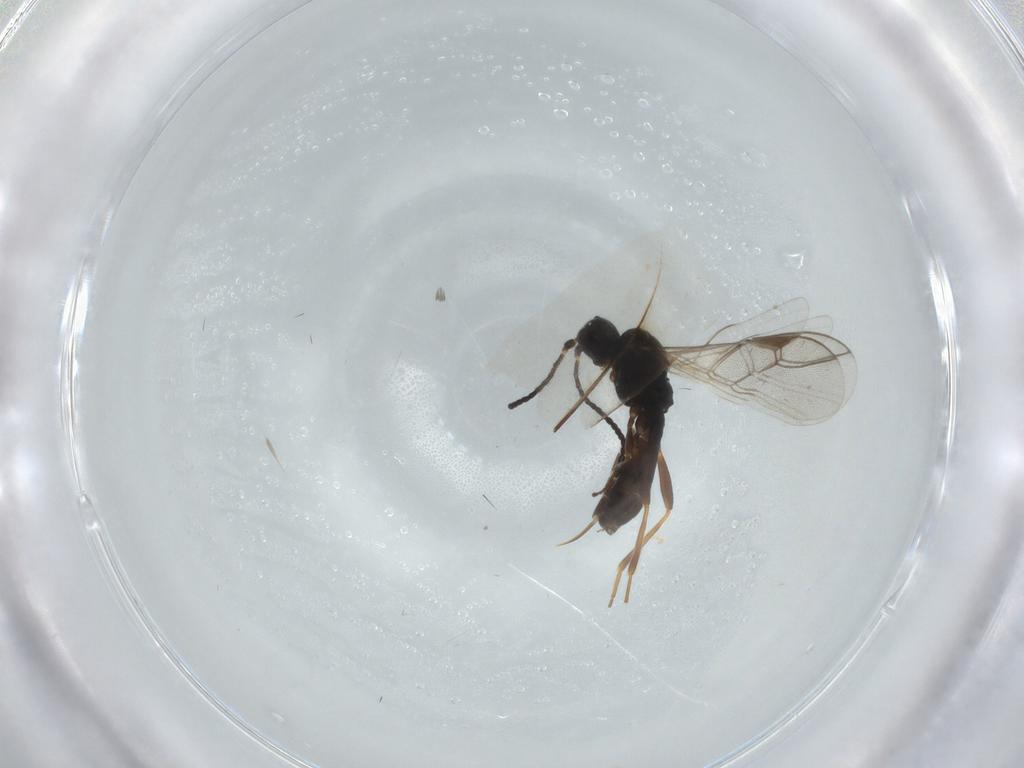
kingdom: Animalia
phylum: Arthropoda
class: Insecta
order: Hymenoptera
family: Braconidae
